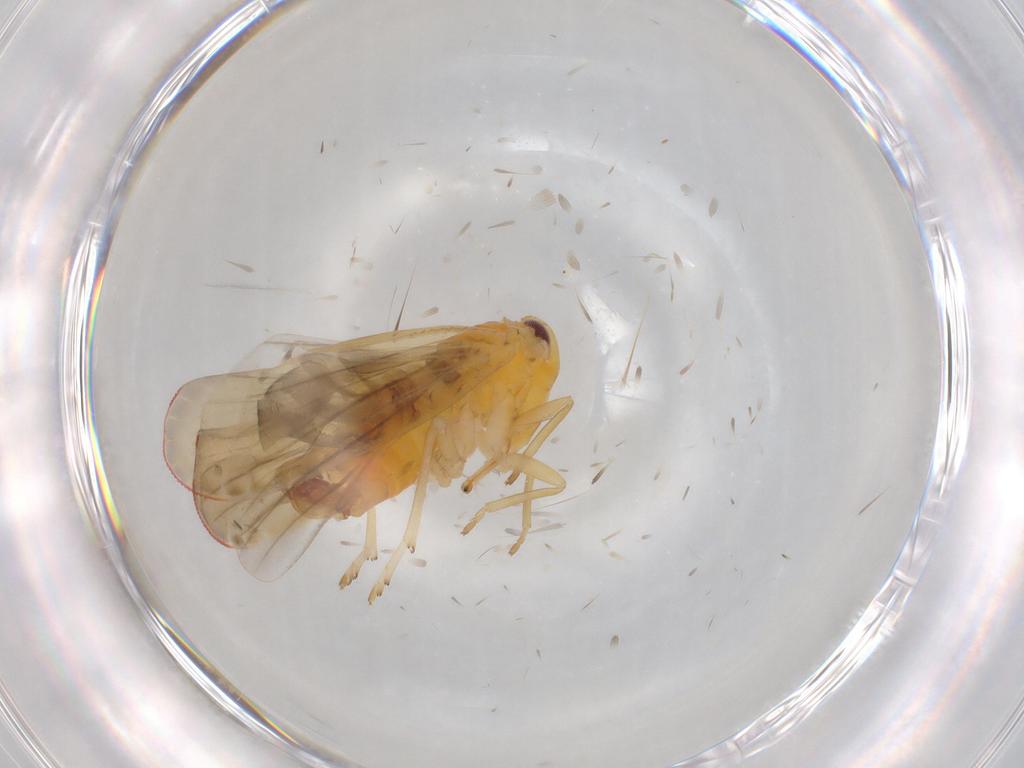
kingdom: Animalia
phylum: Arthropoda
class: Insecta
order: Hemiptera
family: Derbidae
